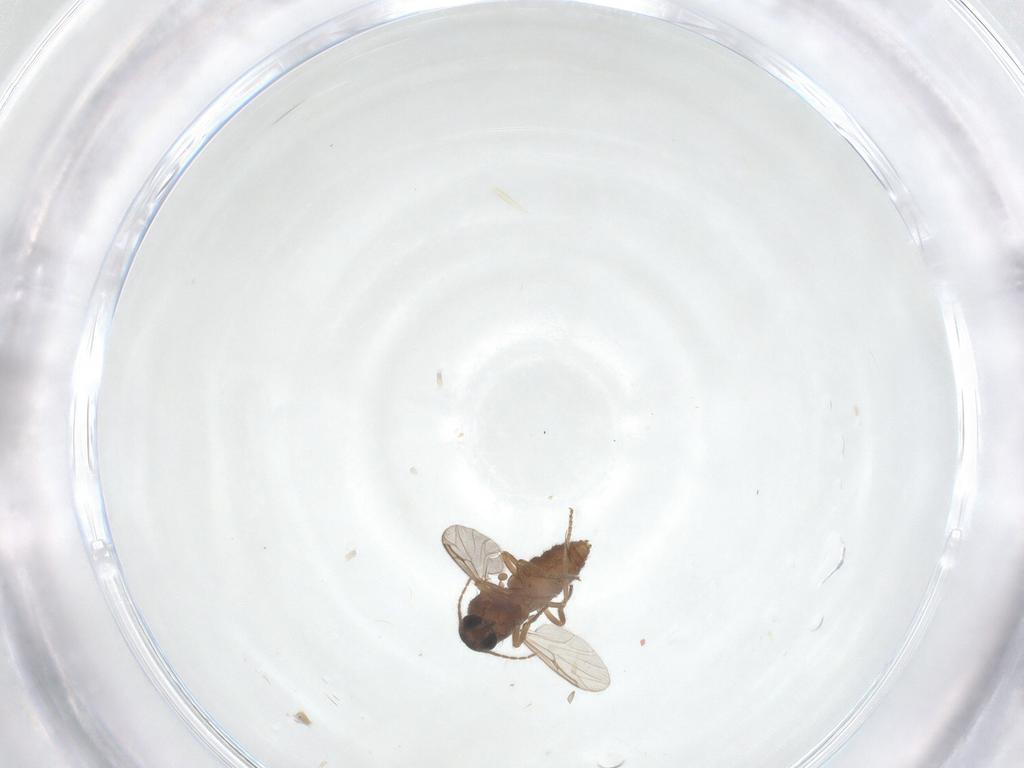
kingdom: Animalia
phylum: Arthropoda
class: Insecta
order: Diptera
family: Ceratopogonidae
